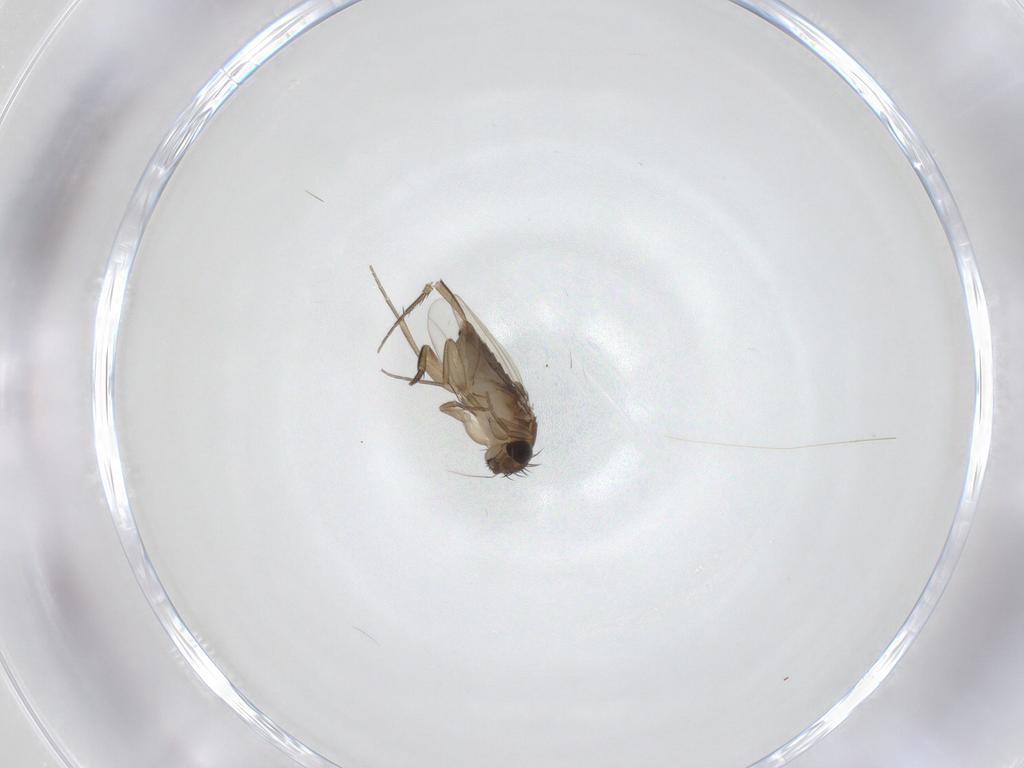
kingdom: Animalia
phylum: Arthropoda
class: Insecta
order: Diptera
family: Phoridae
